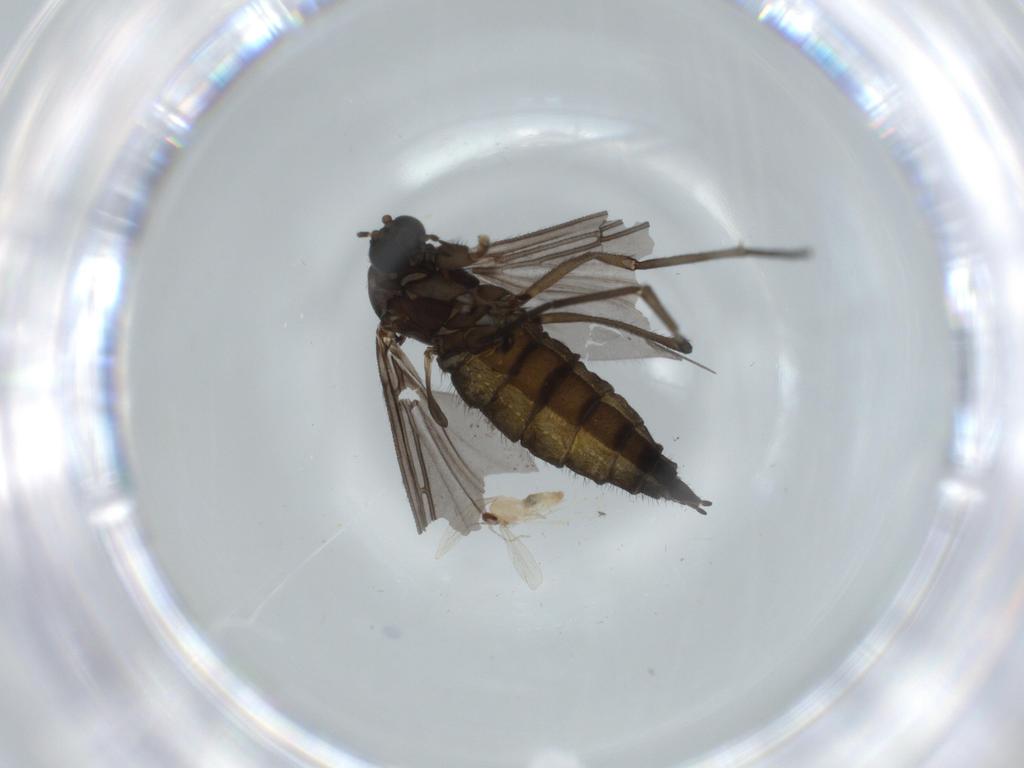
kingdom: Animalia
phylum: Arthropoda
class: Insecta
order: Diptera
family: Sciaridae
